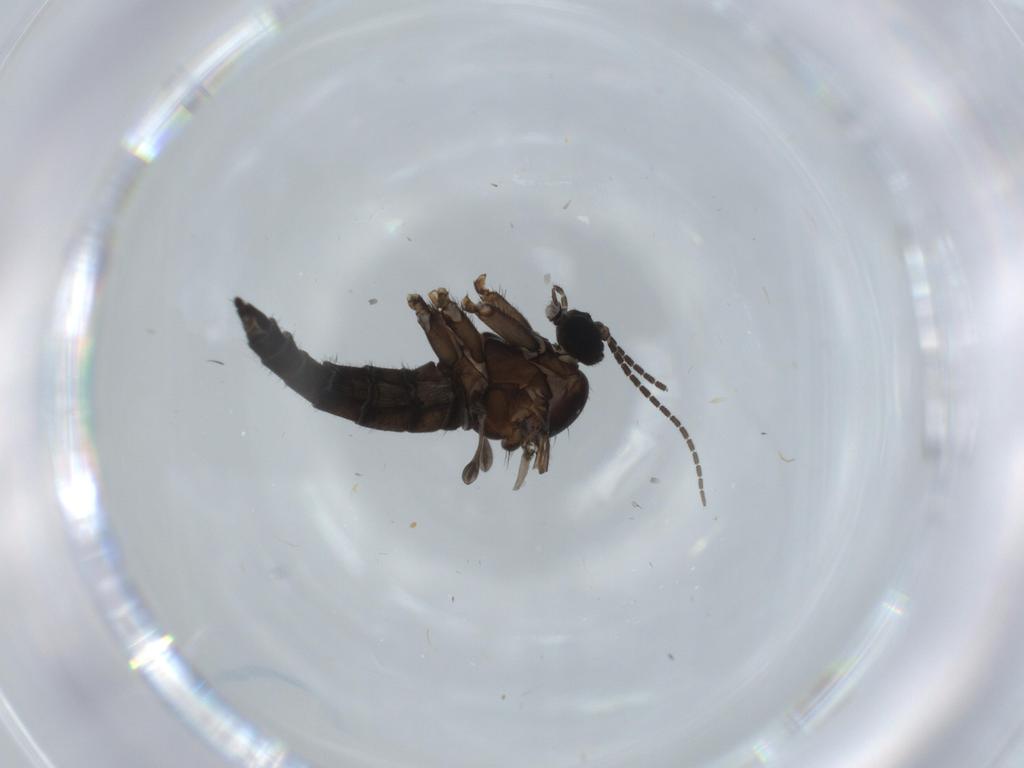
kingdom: Animalia
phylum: Arthropoda
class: Insecta
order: Diptera
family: Sciaridae
